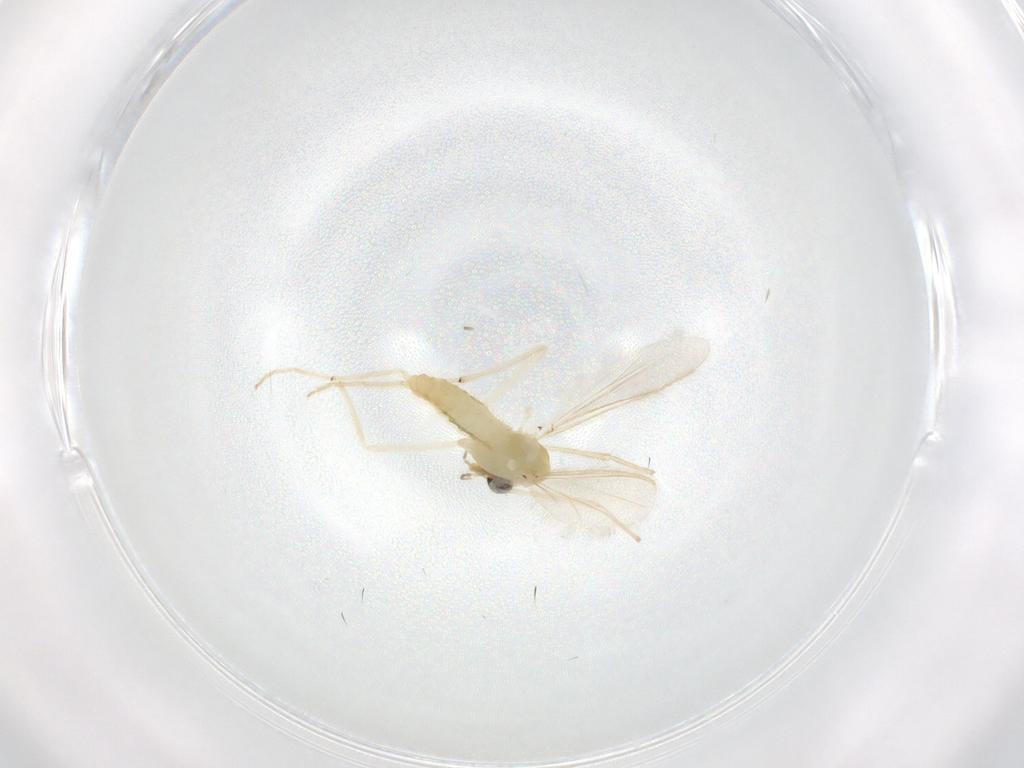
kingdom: Animalia
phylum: Arthropoda
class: Insecta
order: Diptera
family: Chironomidae
